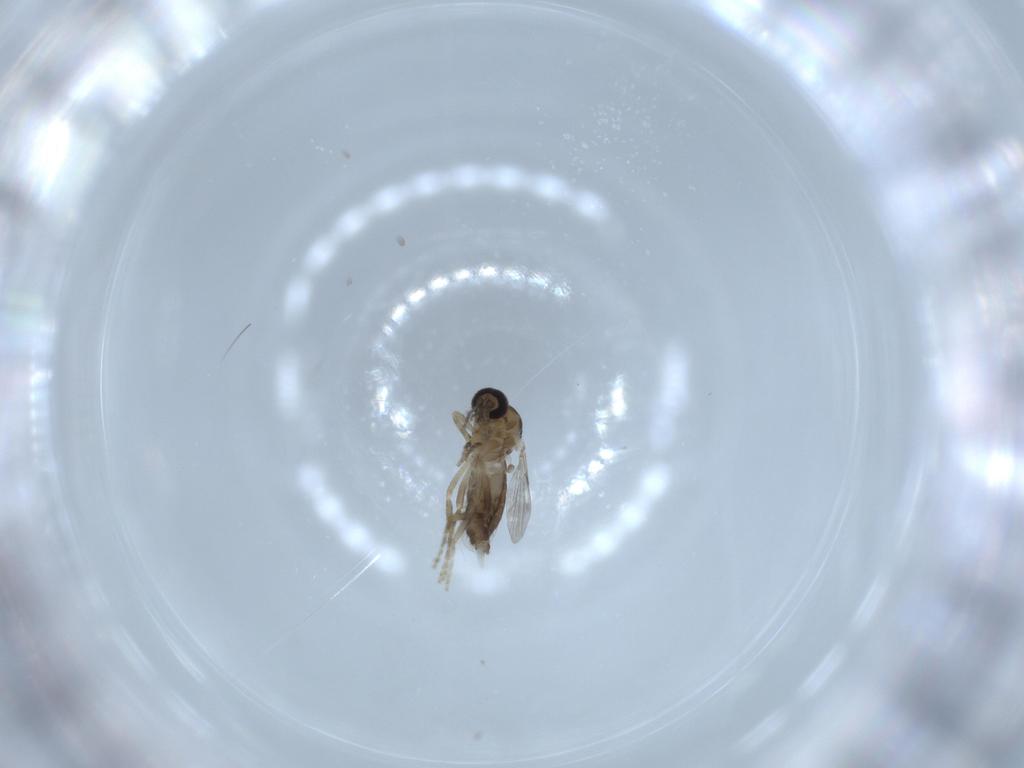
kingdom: Animalia
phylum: Arthropoda
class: Insecta
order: Diptera
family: Ceratopogonidae
